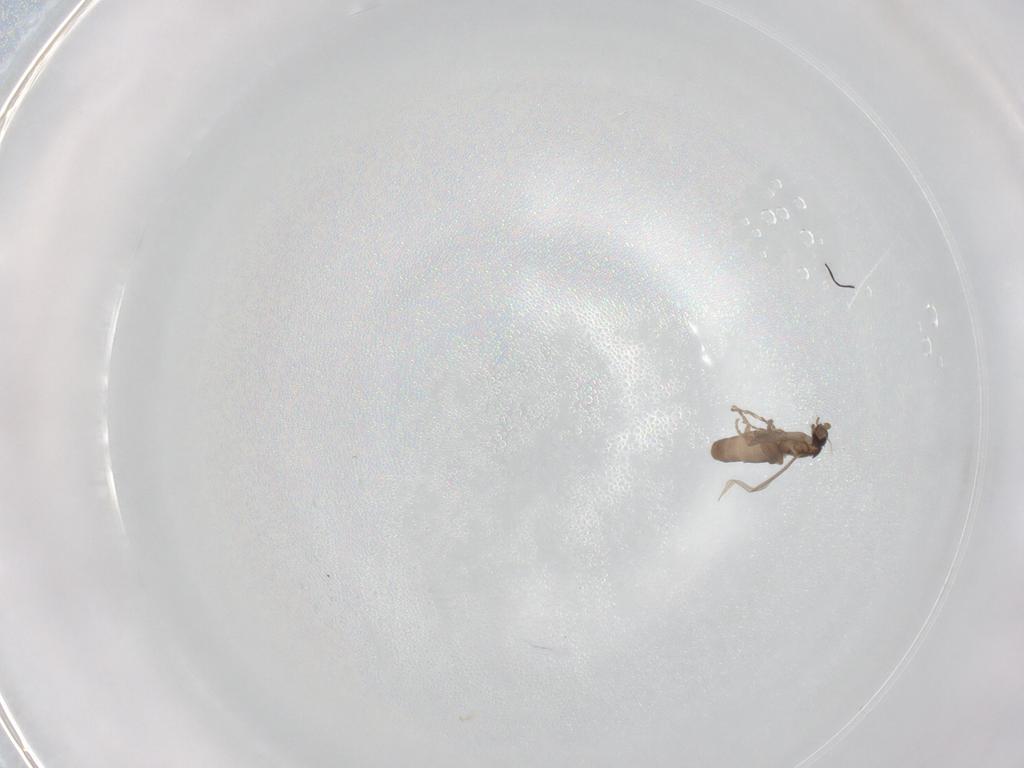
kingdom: Animalia
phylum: Arthropoda
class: Insecta
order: Diptera
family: Phoridae
